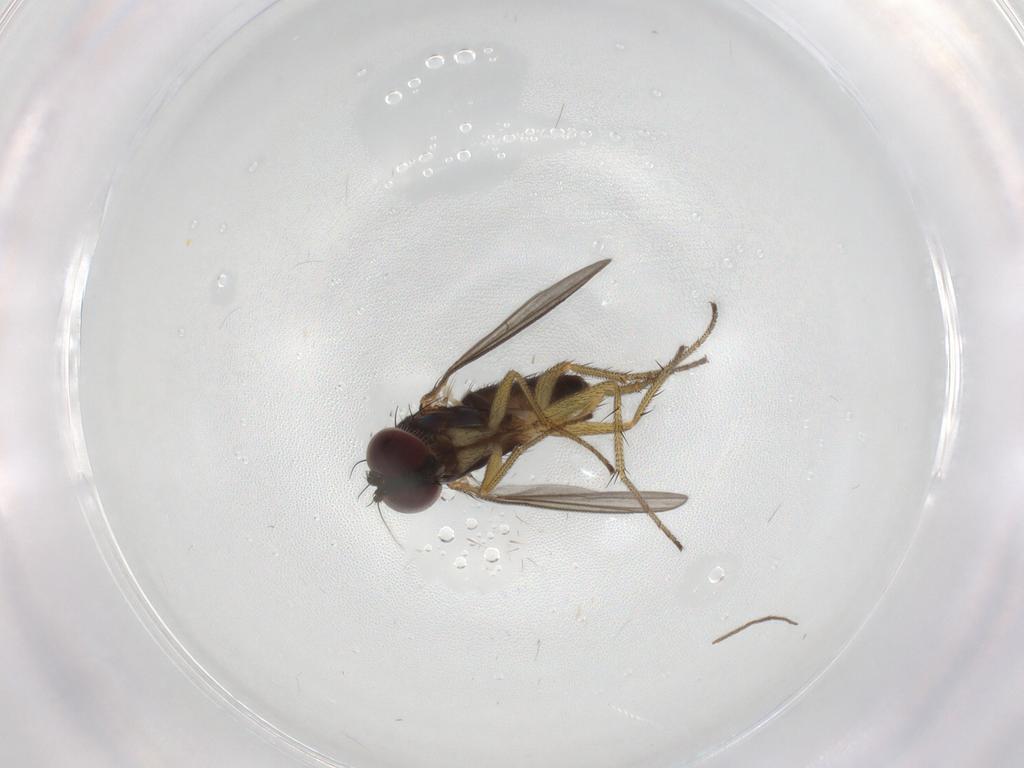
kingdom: Animalia
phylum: Arthropoda
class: Insecta
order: Diptera
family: Chironomidae
